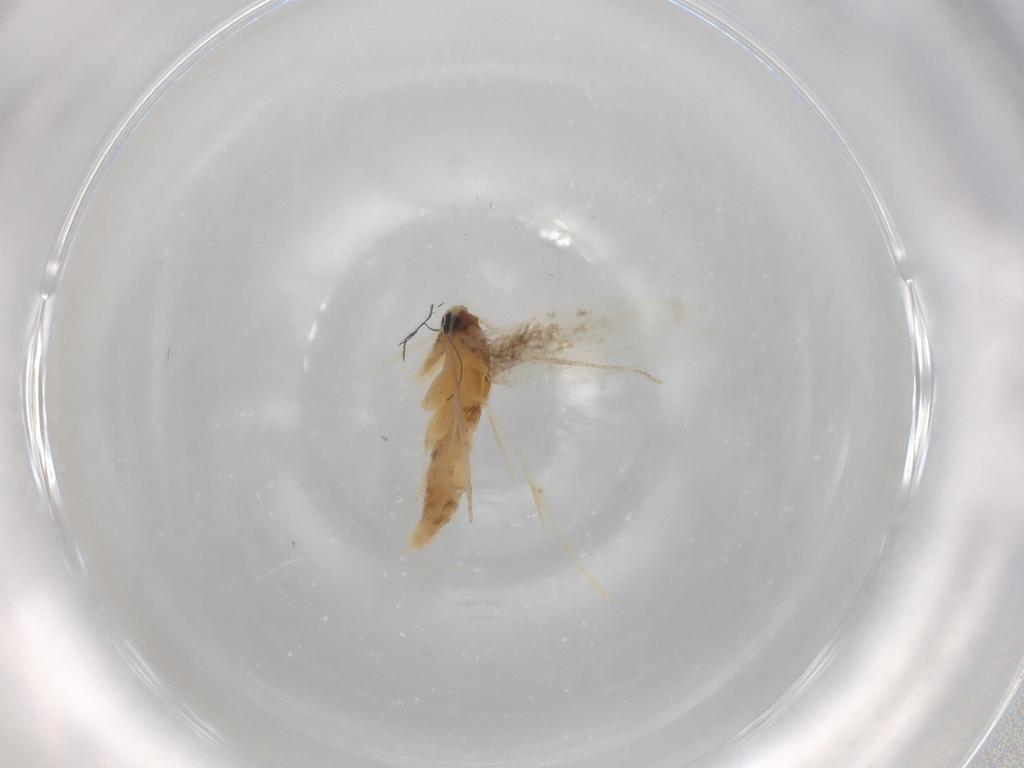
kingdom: Animalia
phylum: Arthropoda
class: Insecta
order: Lepidoptera
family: Tineidae
